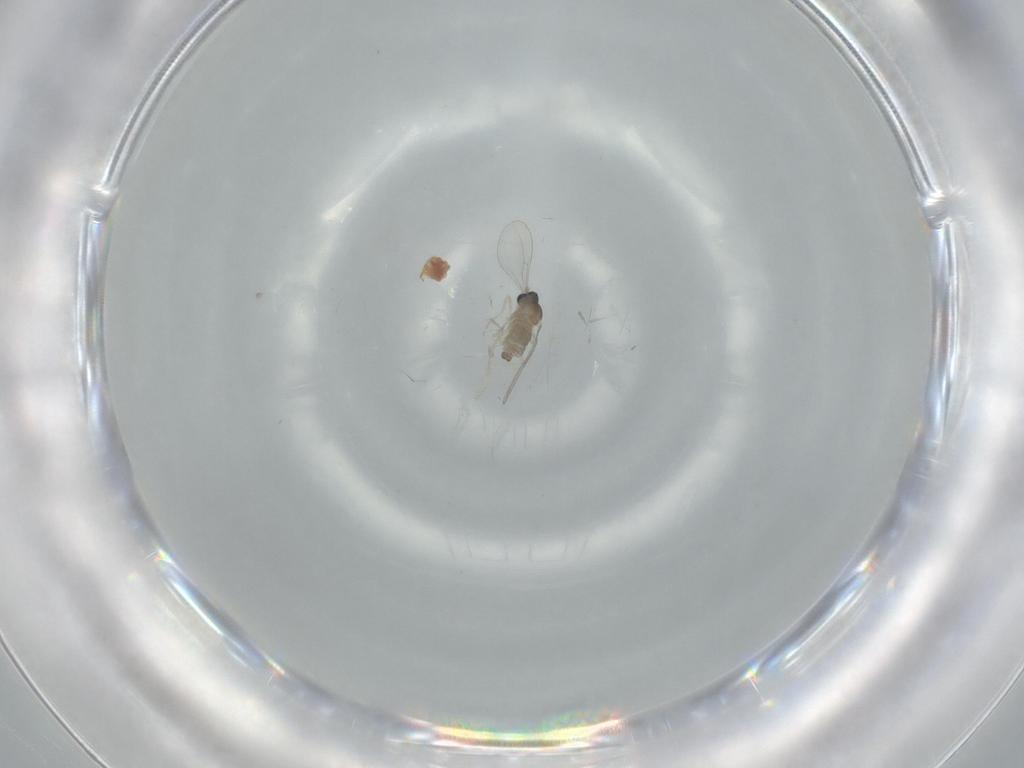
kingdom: Animalia
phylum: Arthropoda
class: Insecta
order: Diptera
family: Cecidomyiidae
